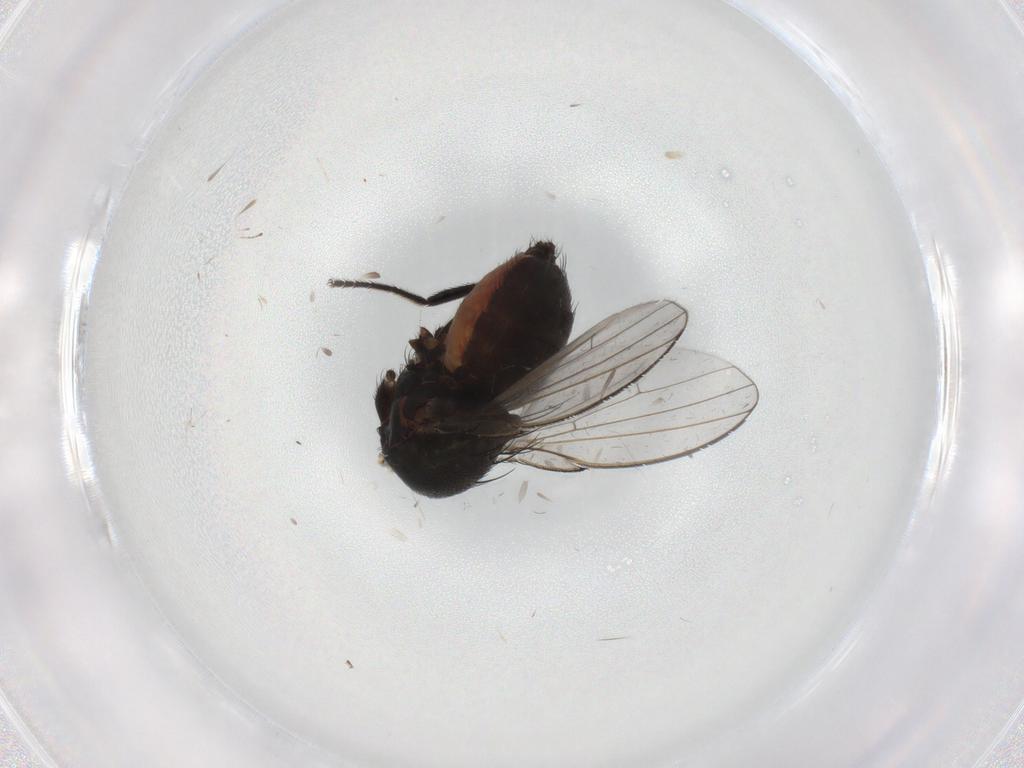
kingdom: Animalia
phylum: Arthropoda
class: Insecta
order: Diptera
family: Milichiidae
